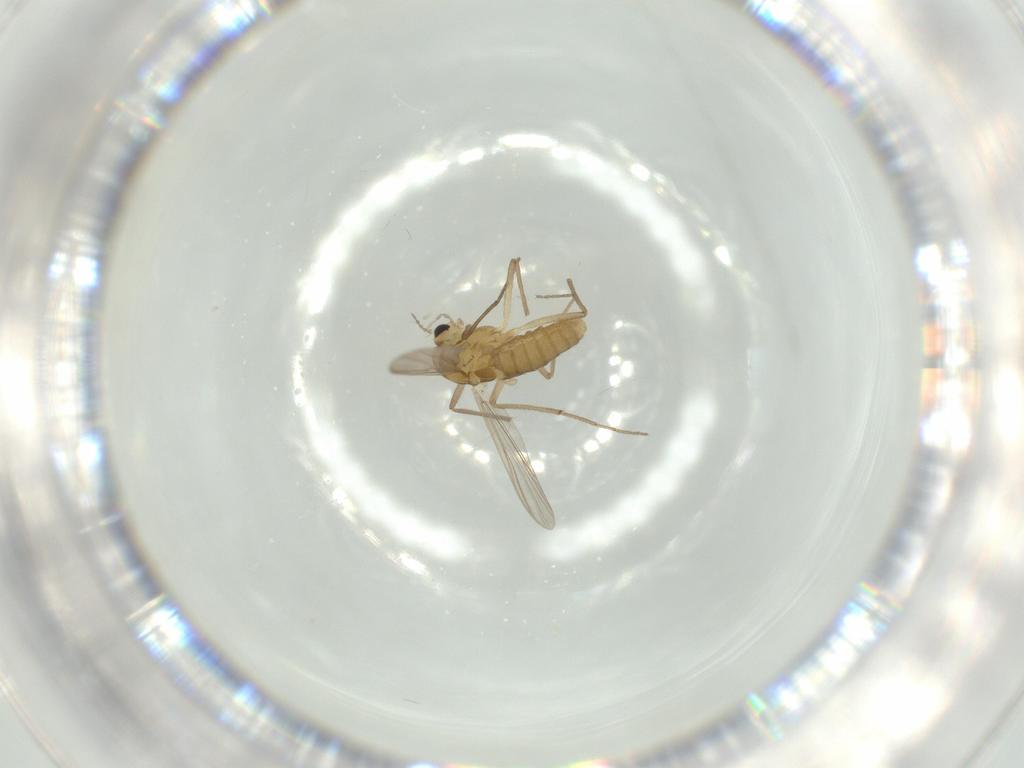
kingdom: Animalia
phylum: Arthropoda
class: Insecta
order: Diptera
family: Chironomidae
